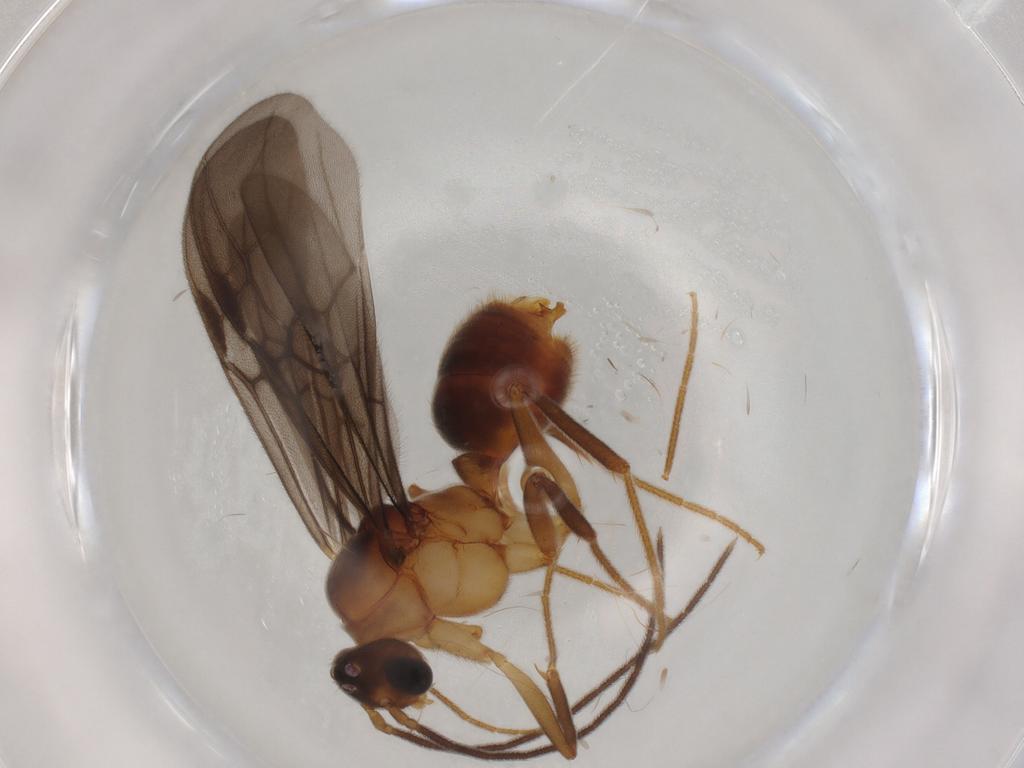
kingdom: Animalia
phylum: Arthropoda
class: Insecta
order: Hymenoptera
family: Formicidae
